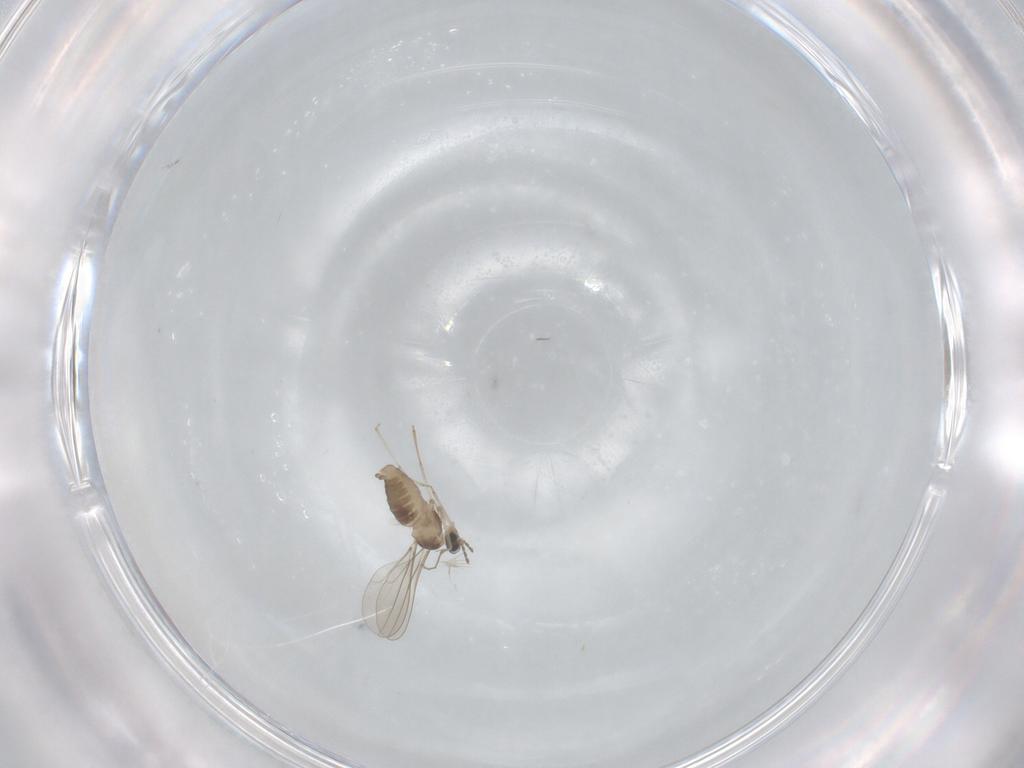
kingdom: Animalia
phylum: Arthropoda
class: Insecta
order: Diptera
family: Cecidomyiidae
